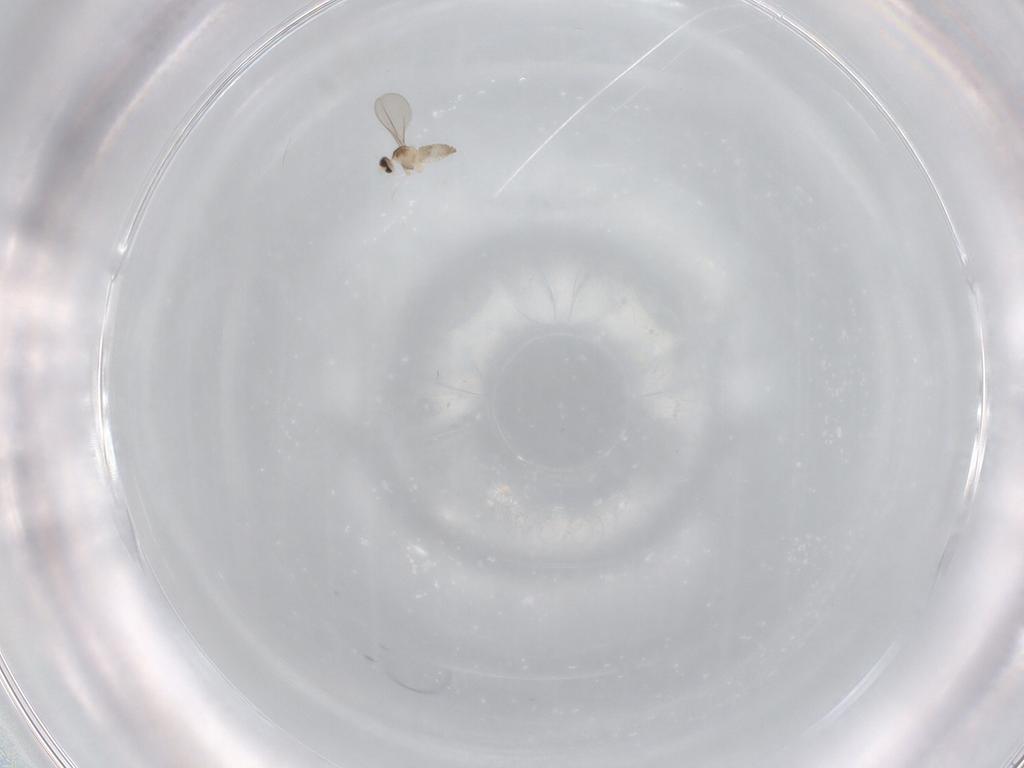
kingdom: Animalia
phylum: Arthropoda
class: Insecta
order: Diptera
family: Cecidomyiidae
